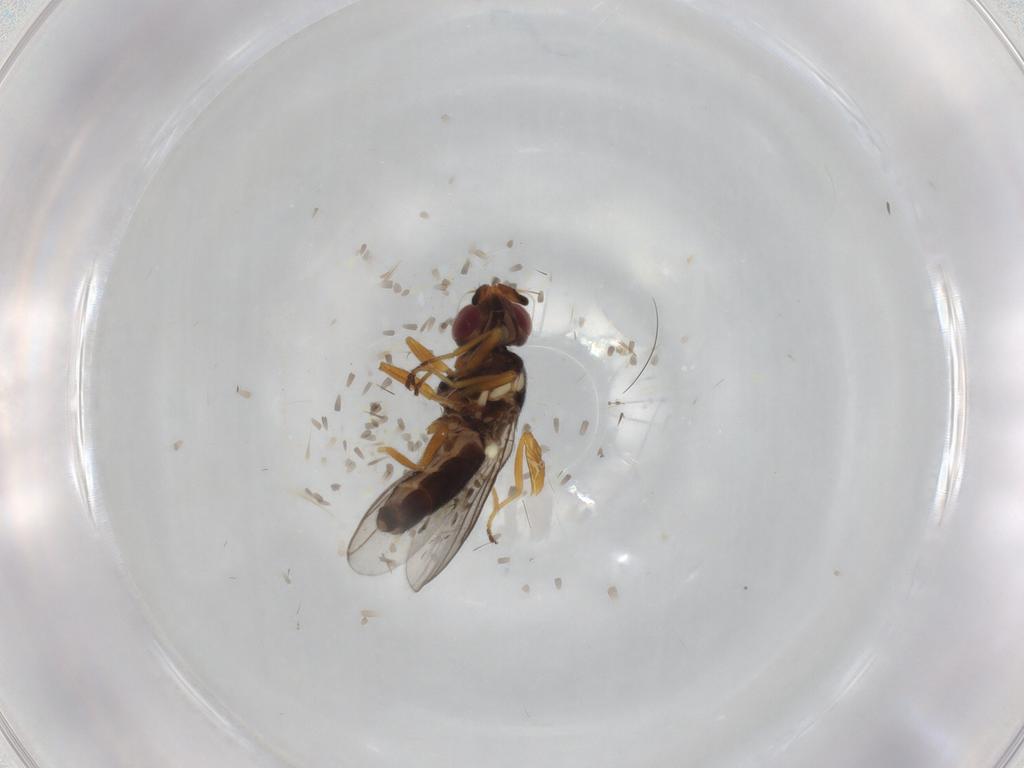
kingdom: Animalia
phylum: Arthropoda
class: Insecta
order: Diptera
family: Chloropidae
